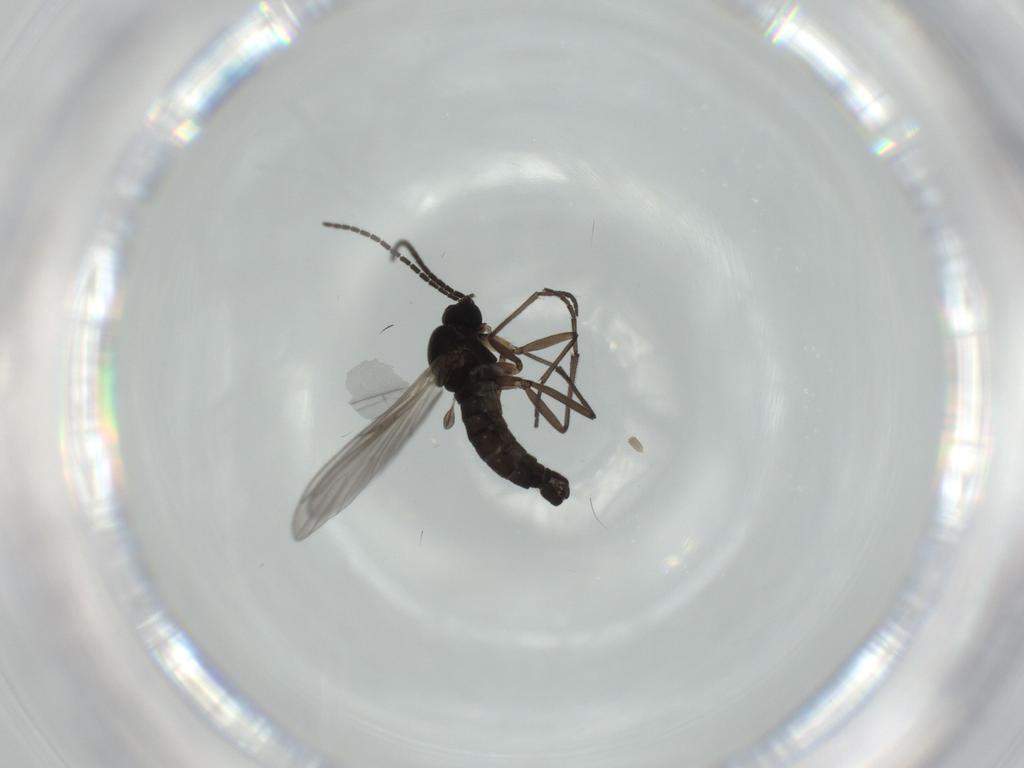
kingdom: Animalia
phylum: Arthropoda
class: Insecta
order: Diptera
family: Sciaridae
